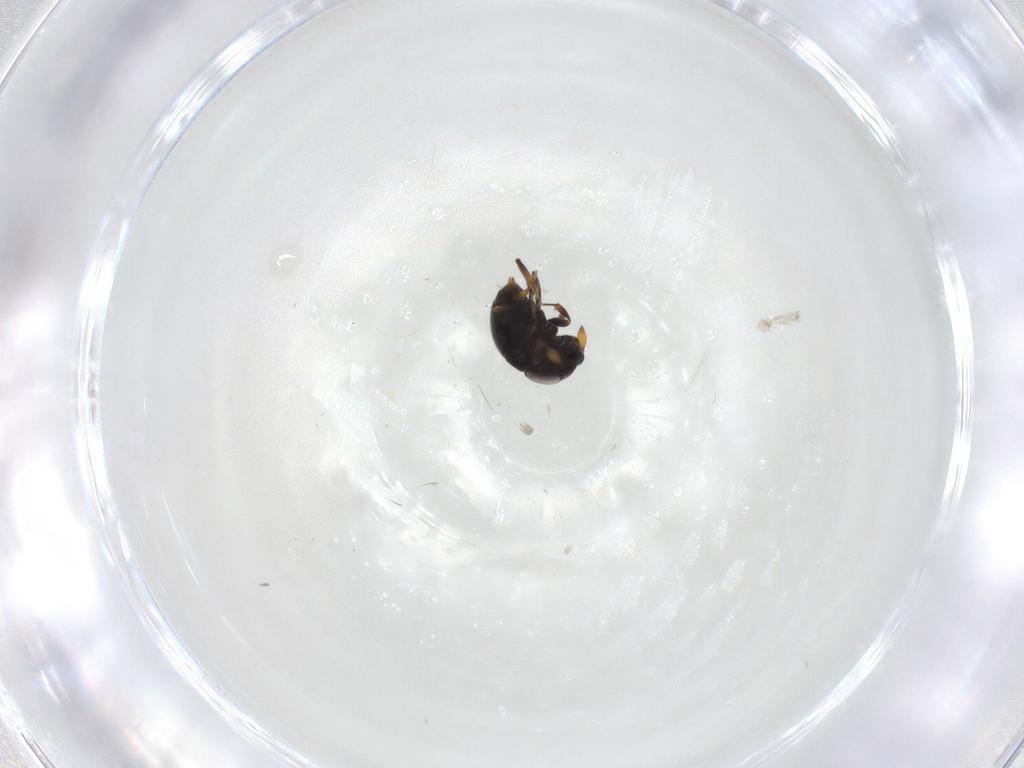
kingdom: Animalia
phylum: Arthropoda
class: Insecta
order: Hymenoptera
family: Scelionidae
